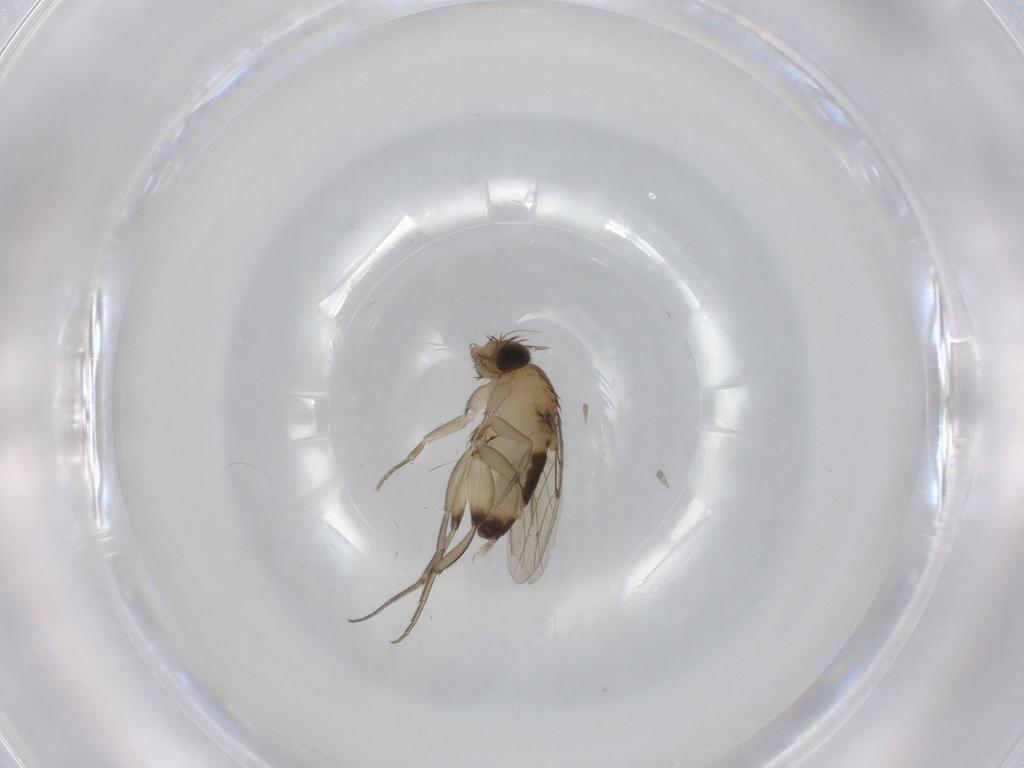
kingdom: Animalia
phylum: Arthropoda
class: Insecta
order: Diptera
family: Phoridae
